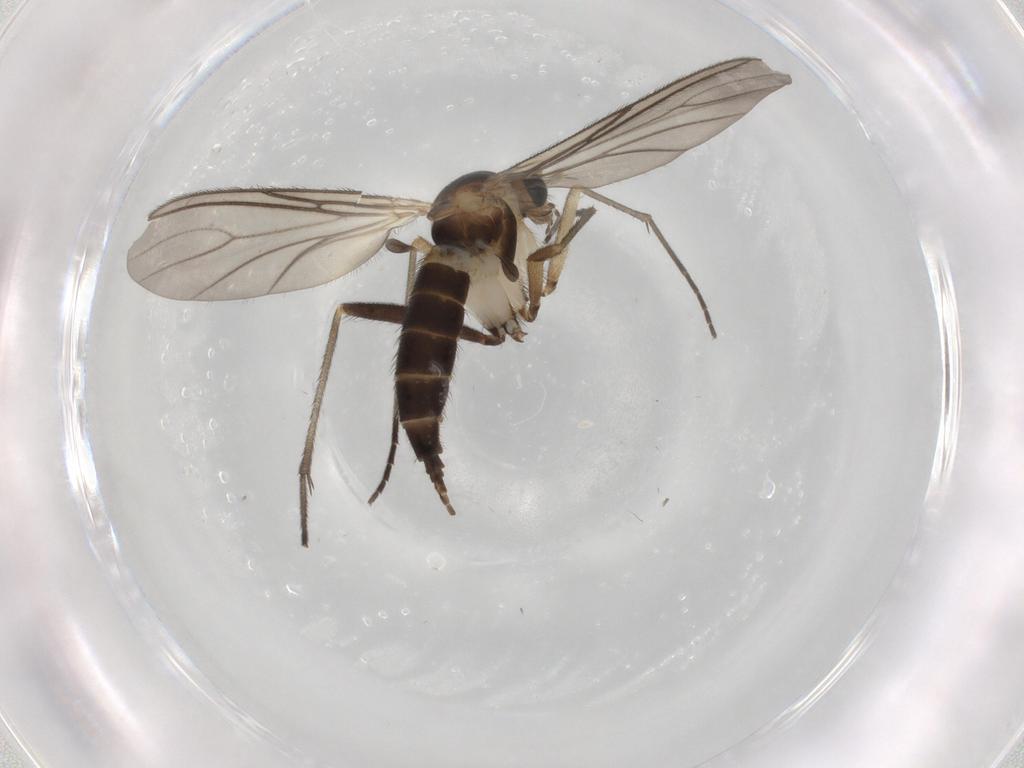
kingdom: Animalia
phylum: Arthropoda
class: Insecta
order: Diptera
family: Sciaridae
